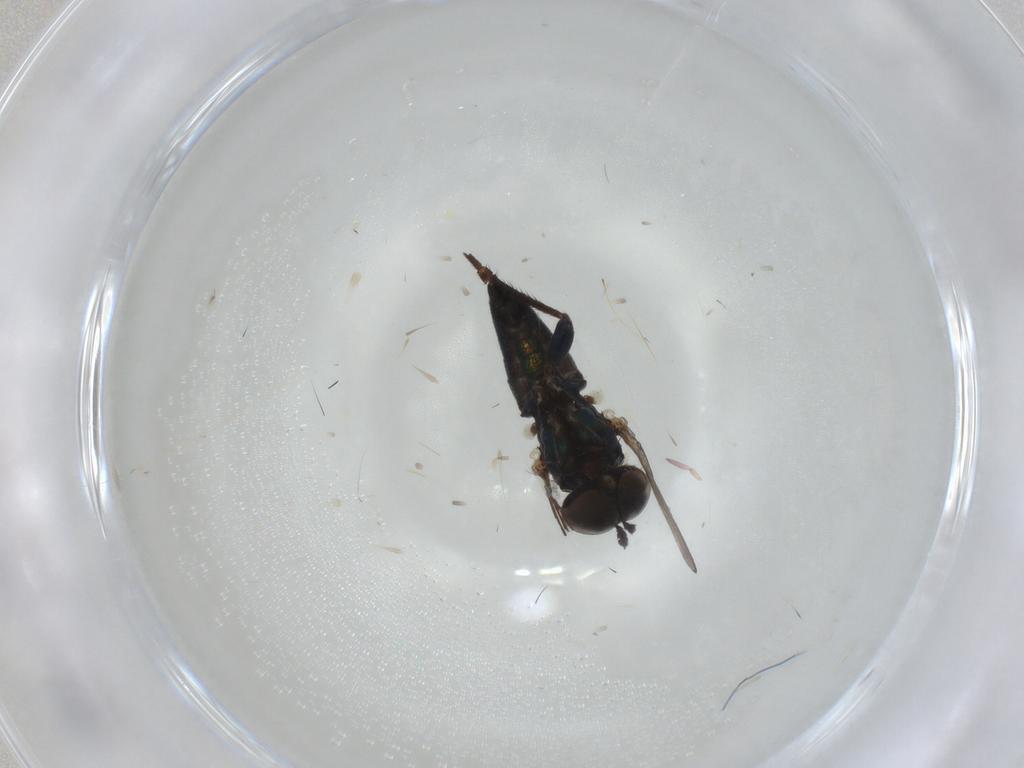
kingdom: Animalia
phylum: Arthropoda
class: Insecta
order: Diptera
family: Dolichopodidae
